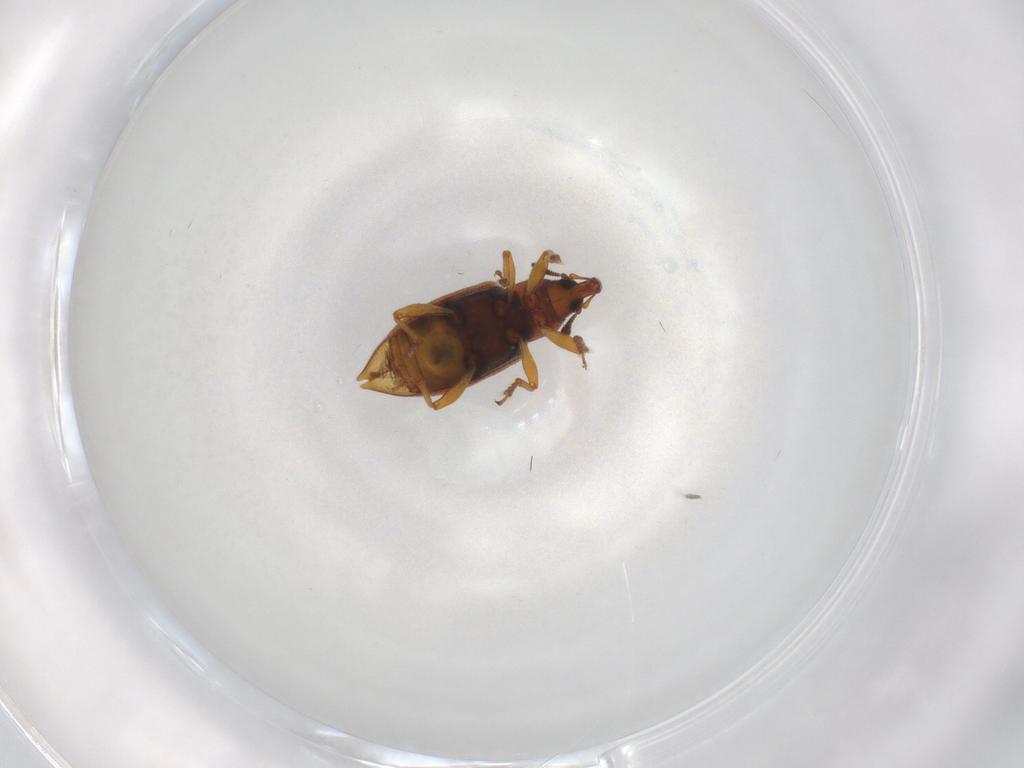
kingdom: Animalia
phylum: Arthropoda
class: Insecta
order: Coleoptera
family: Curculionidae
